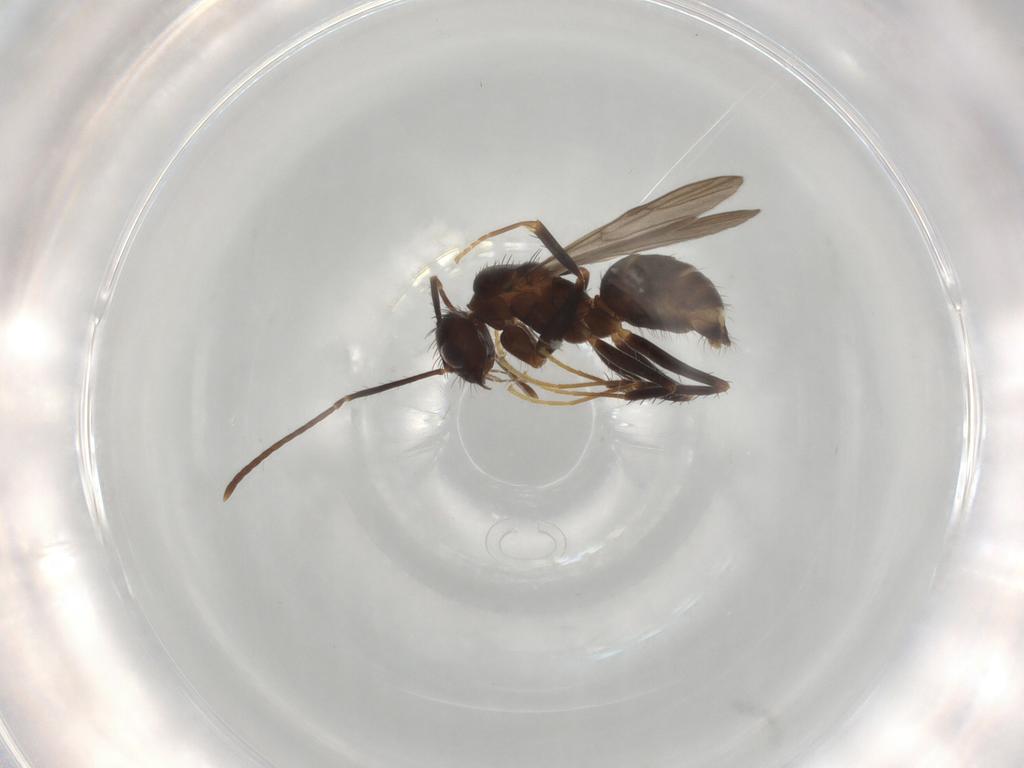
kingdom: Animalia
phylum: Arthropoda
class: Insecta
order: Hymenoptera
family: Formicidae
